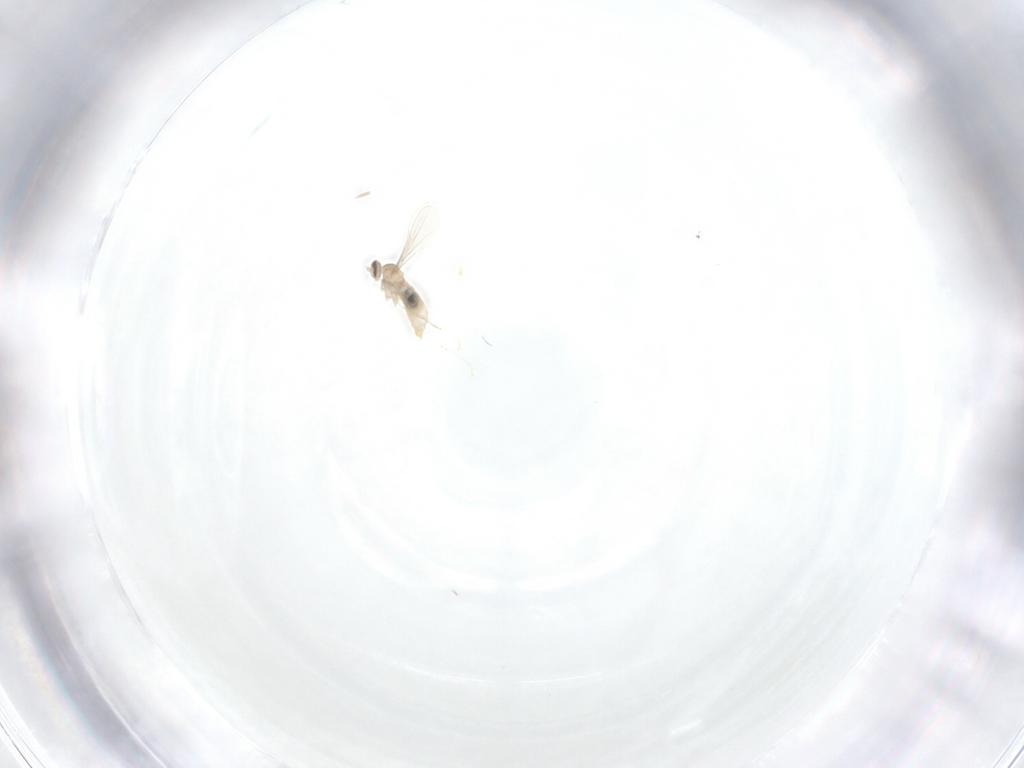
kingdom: Animalia
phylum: Arthropoda
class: Insecta
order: Diptera
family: Cecidomyiidae
